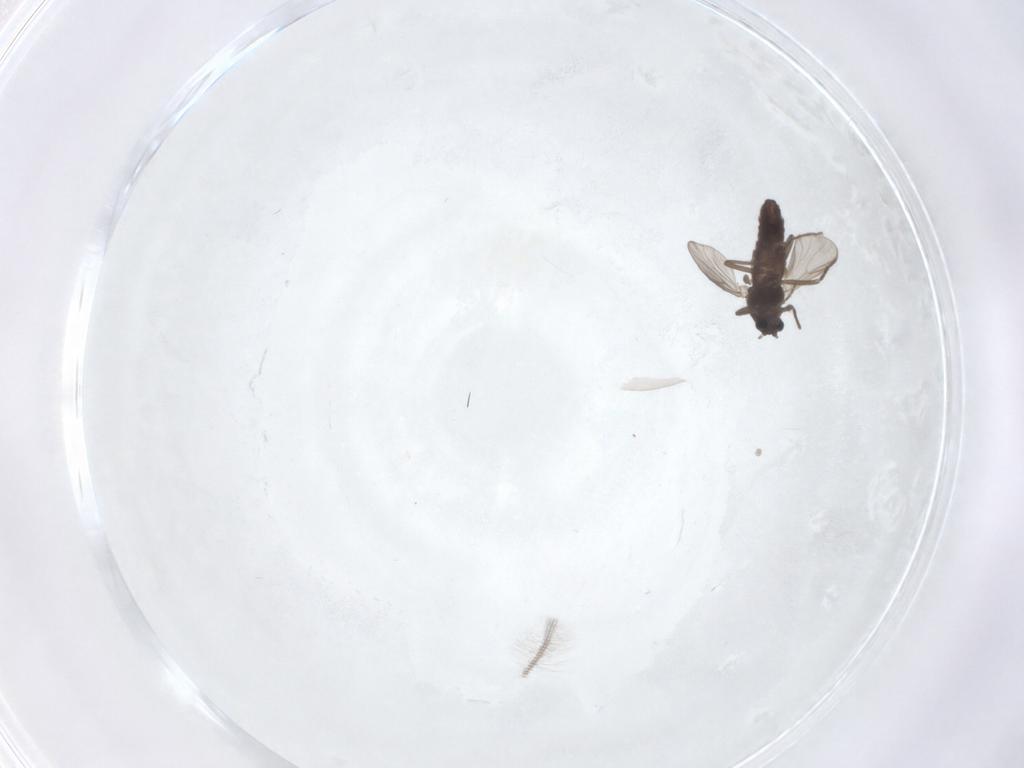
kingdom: Animalia
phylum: Arthropoda
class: Insecta
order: Diptera
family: Chironomidae
